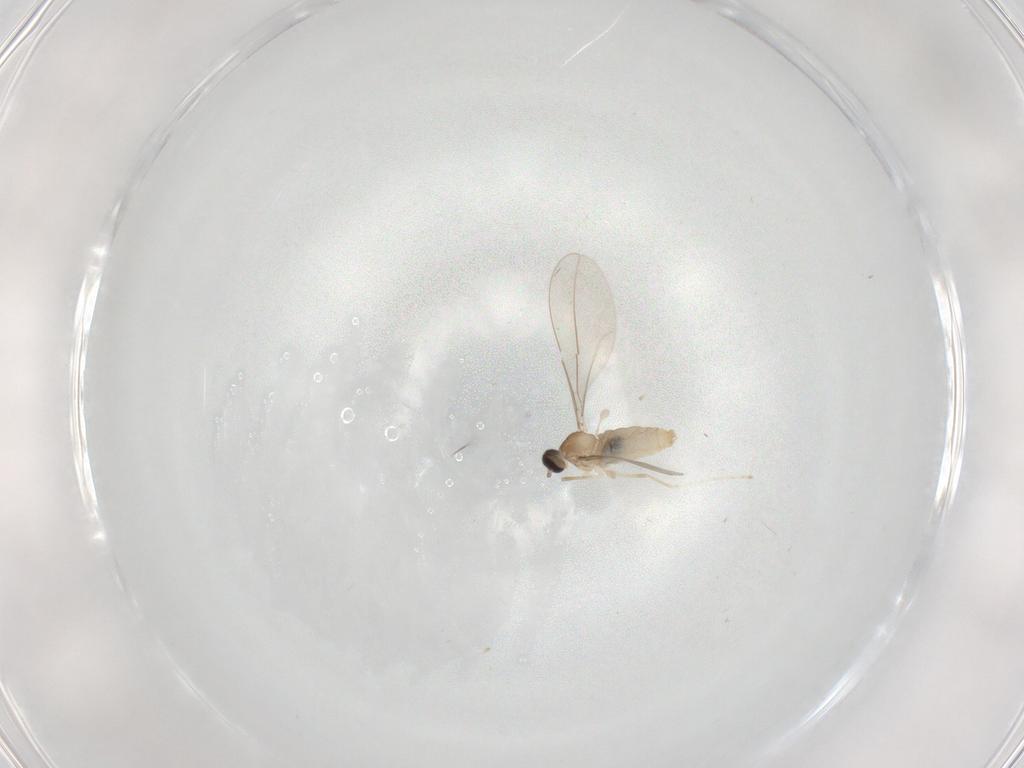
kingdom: Animalia
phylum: Arthropoda
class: Insecta
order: Diptera
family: Cecidomyiidae
